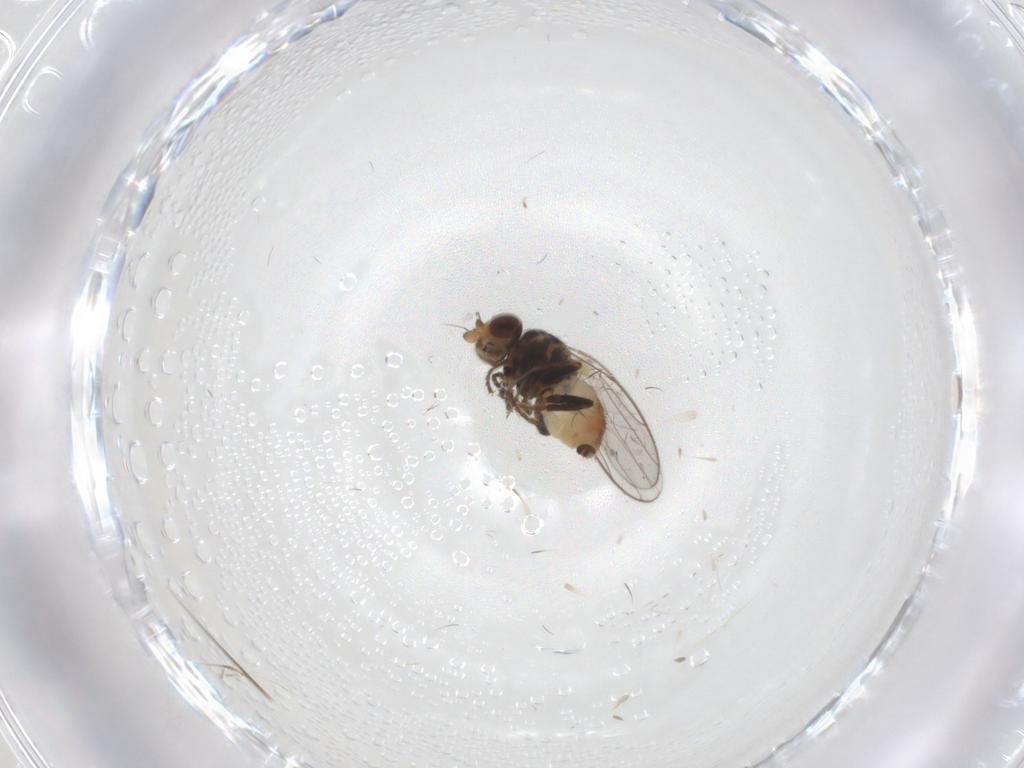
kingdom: Animalia
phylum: Arthropoda
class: Insecta
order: Diptera
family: Chloropidae
